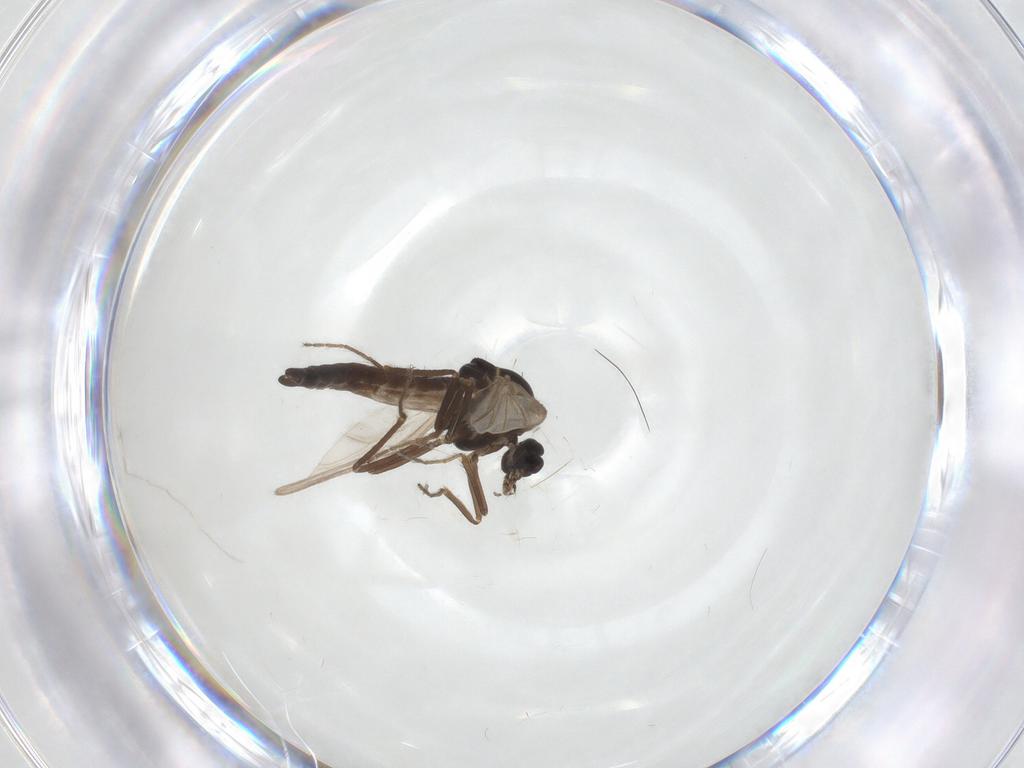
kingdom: Animalia
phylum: Arthropoda
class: Insecta
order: Diptera
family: Ceratopogonidae
